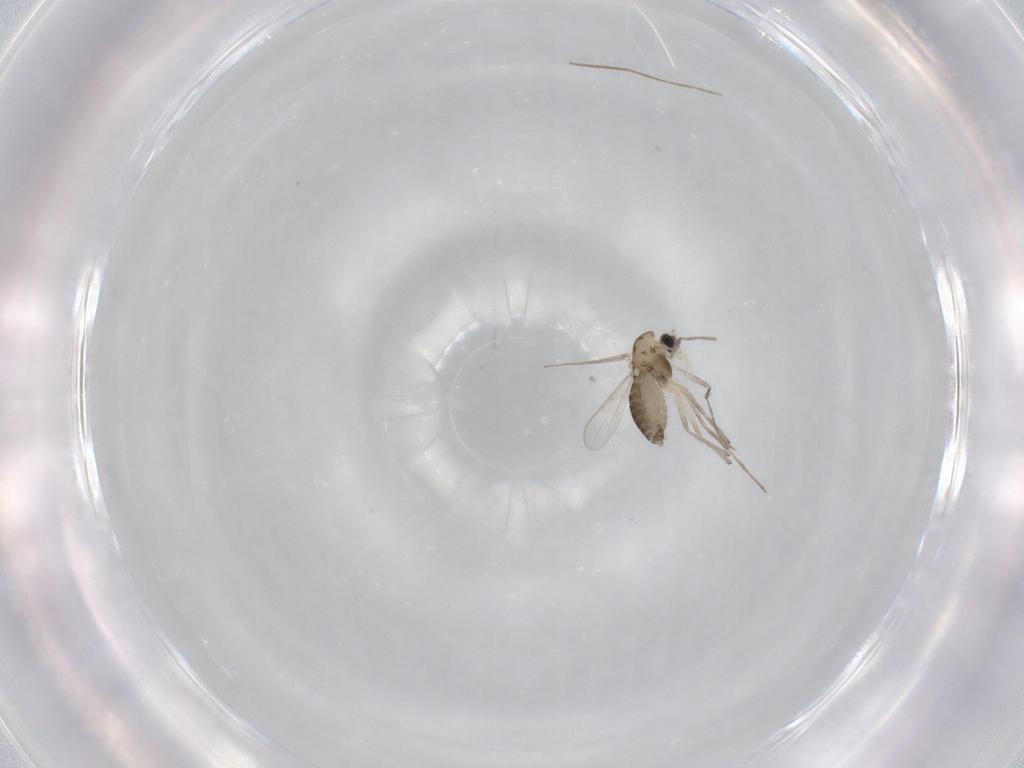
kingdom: Animalia
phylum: Arthropoda
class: Insecta
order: Diptera
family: Chironomidae
